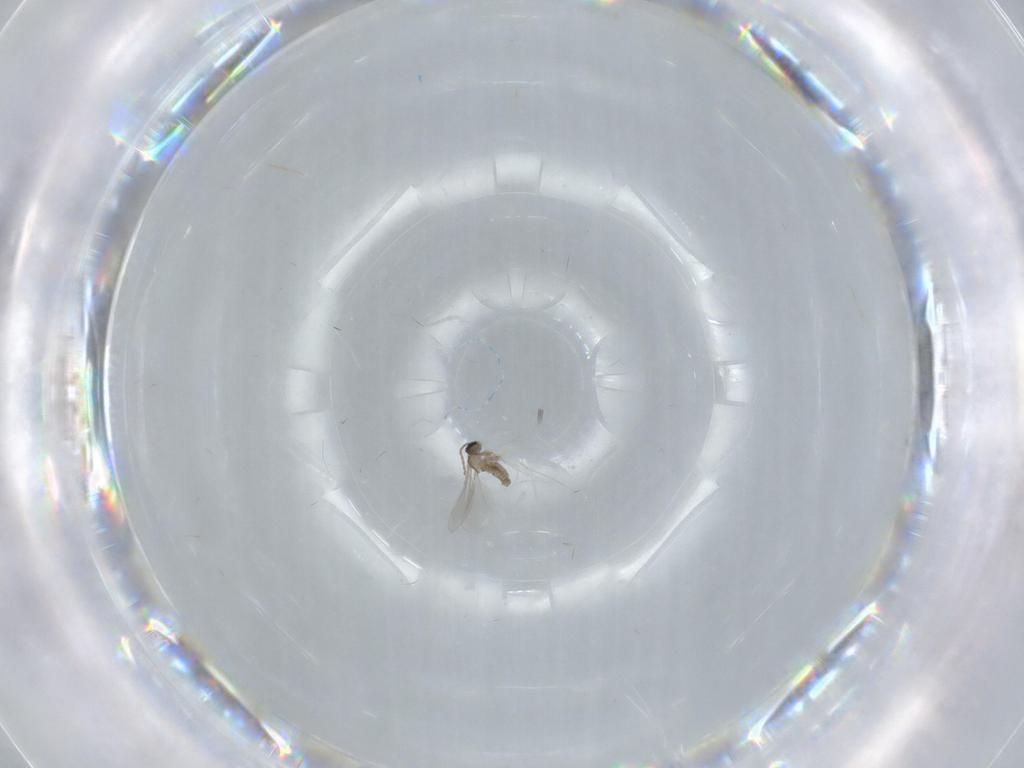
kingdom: Animalia
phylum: Arthropoda
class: Insecta
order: Diptera
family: Cecidomyiidae
